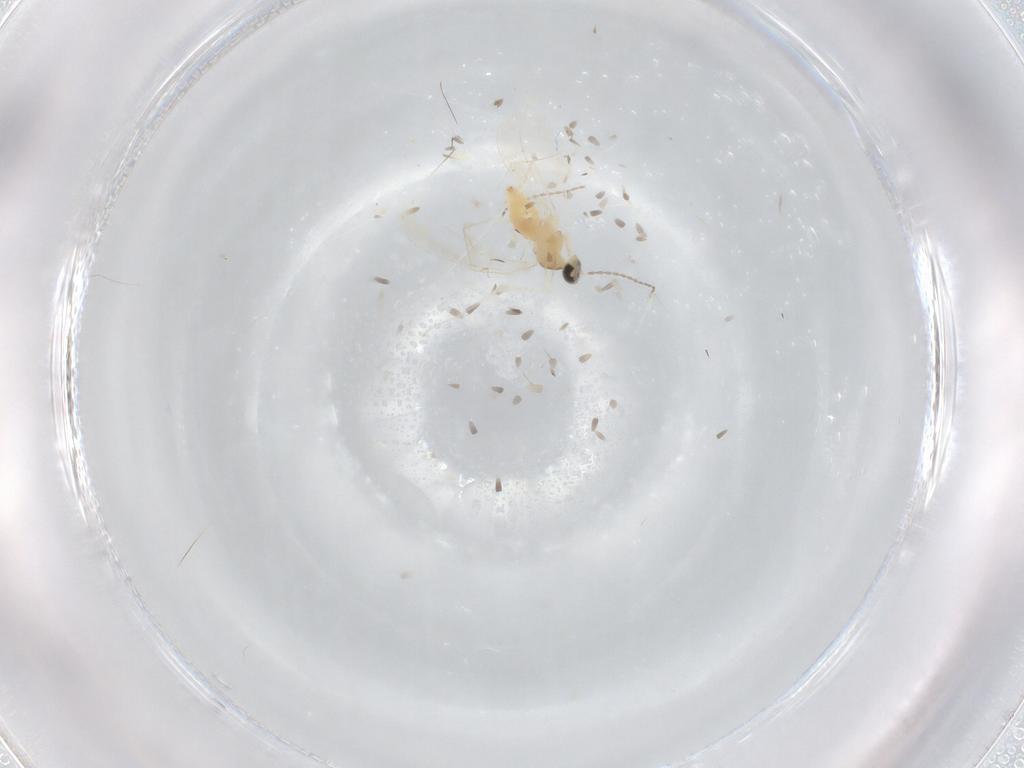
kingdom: Animalia
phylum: Arthropoda
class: Insecta
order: Diptera
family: Cecidomyiidae
